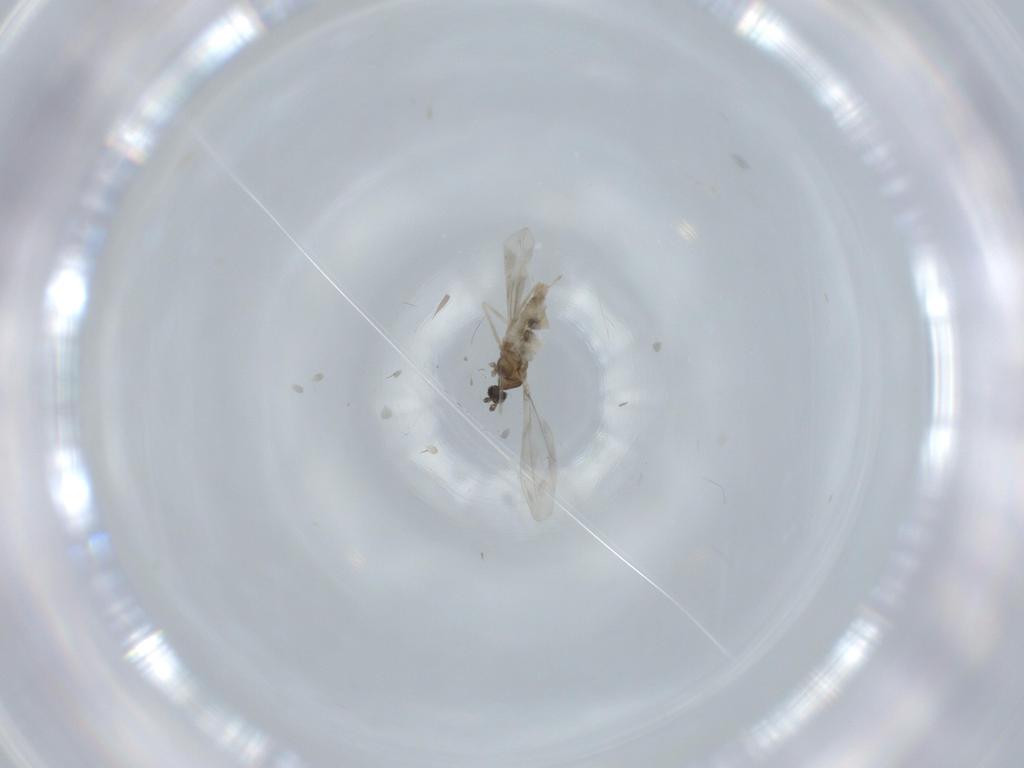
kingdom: Animalia
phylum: Arthropoda
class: Insecta
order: Diptera
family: Cecidomyiidae
